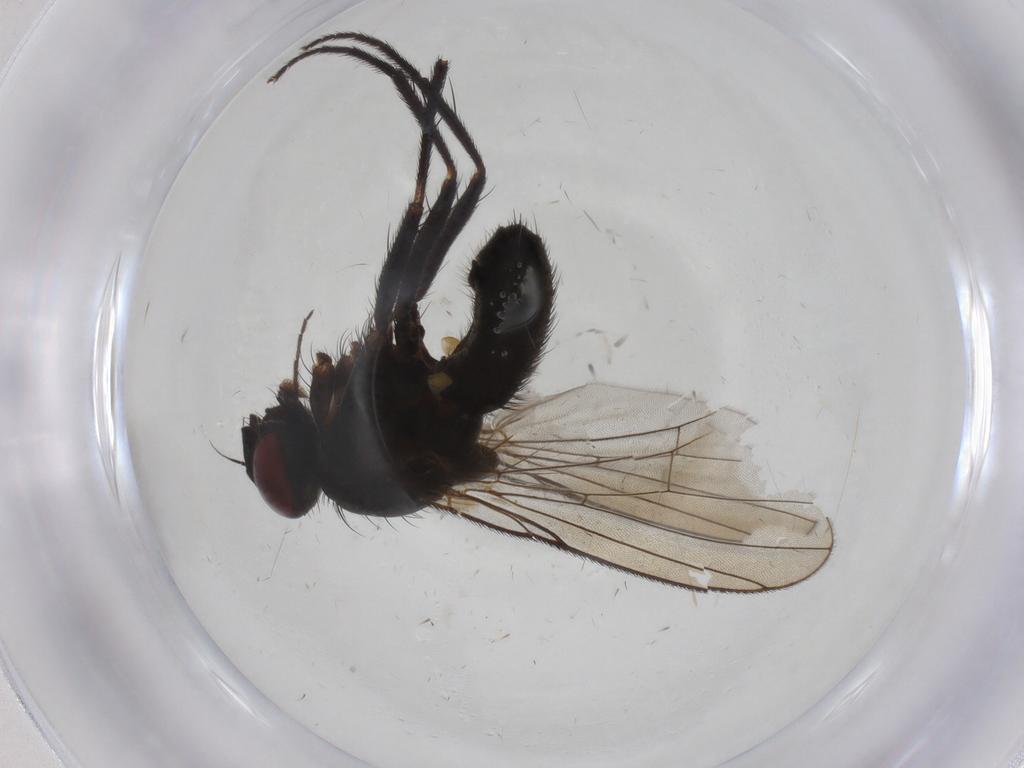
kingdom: Animalia
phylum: Arthropoda
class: Insecta
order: Diptera
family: Muscidae
